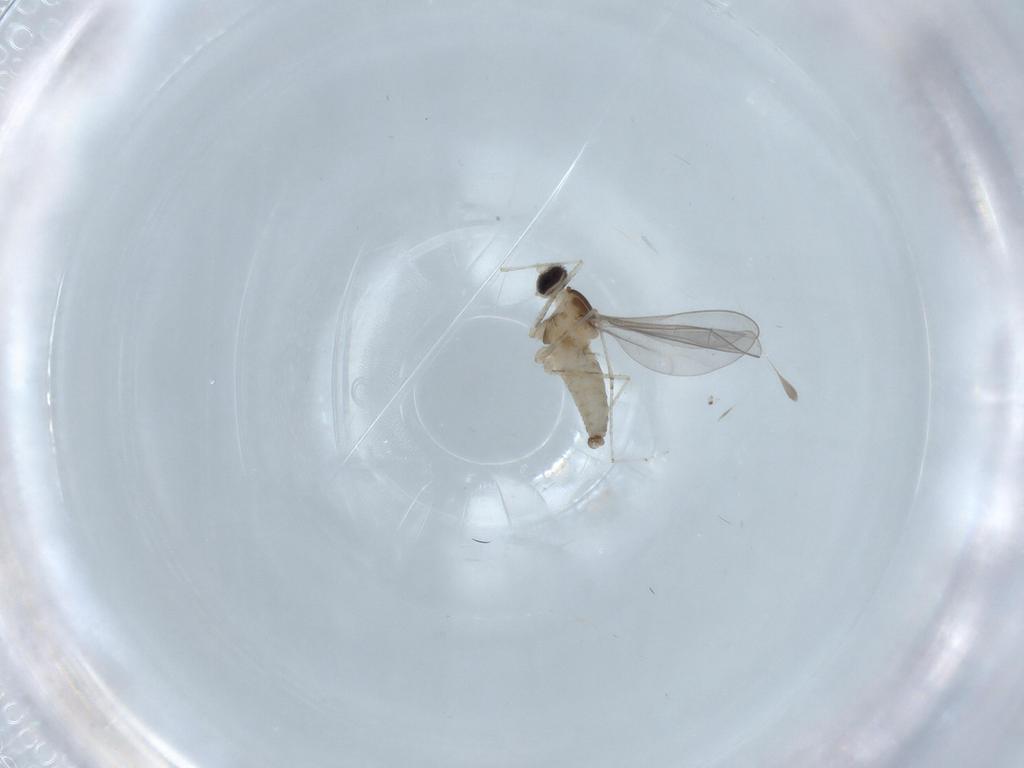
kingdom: Animalia
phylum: Arthropoda
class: Insecta
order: Diptera
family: Cecidomyiidae
